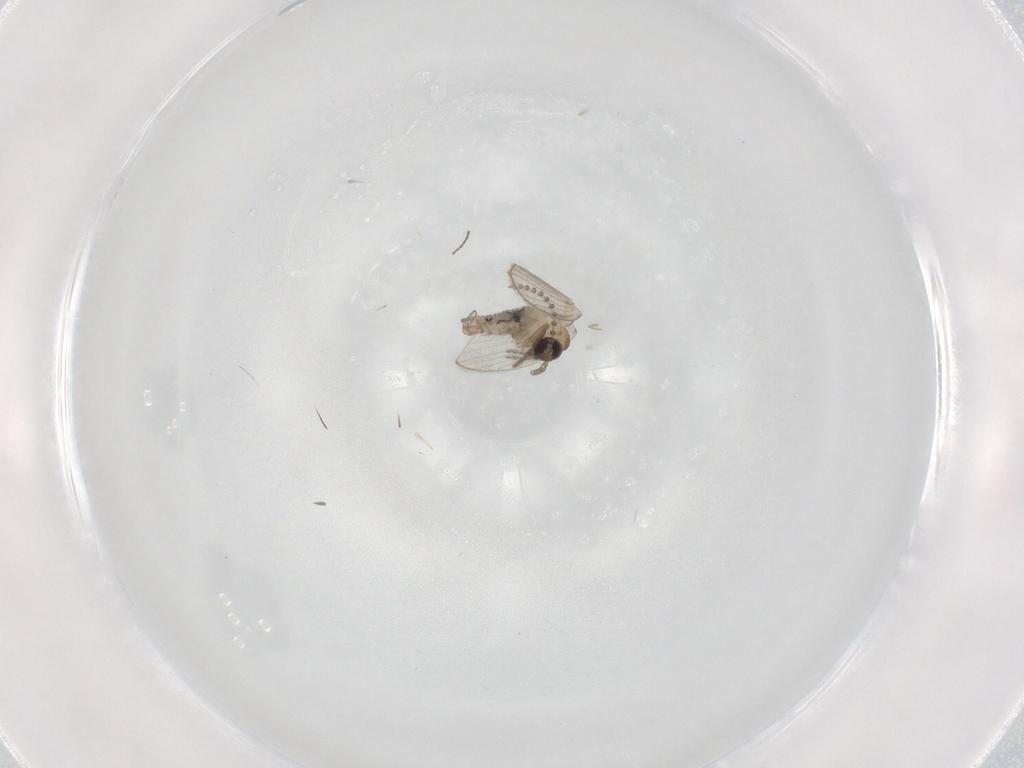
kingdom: Animalia
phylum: Arthropoda
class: Insecta
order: Diptera
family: Psychodidae
